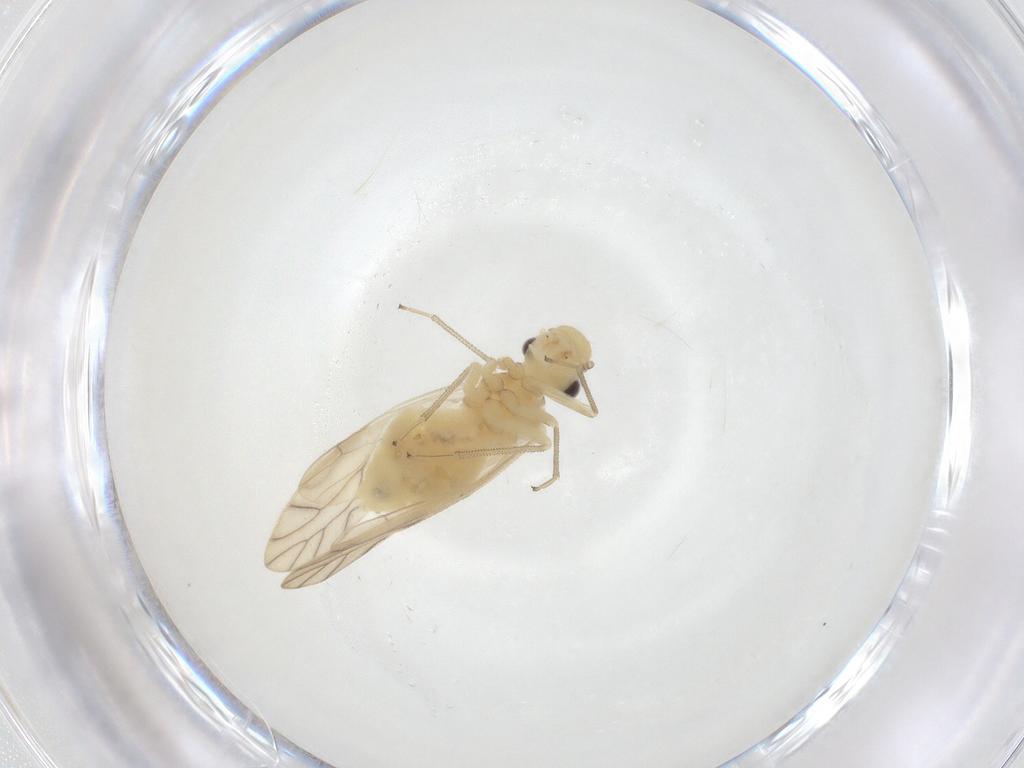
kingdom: Animalia
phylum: Arthropoda
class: Insecta
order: Psocodea
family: Caeciliusidae
